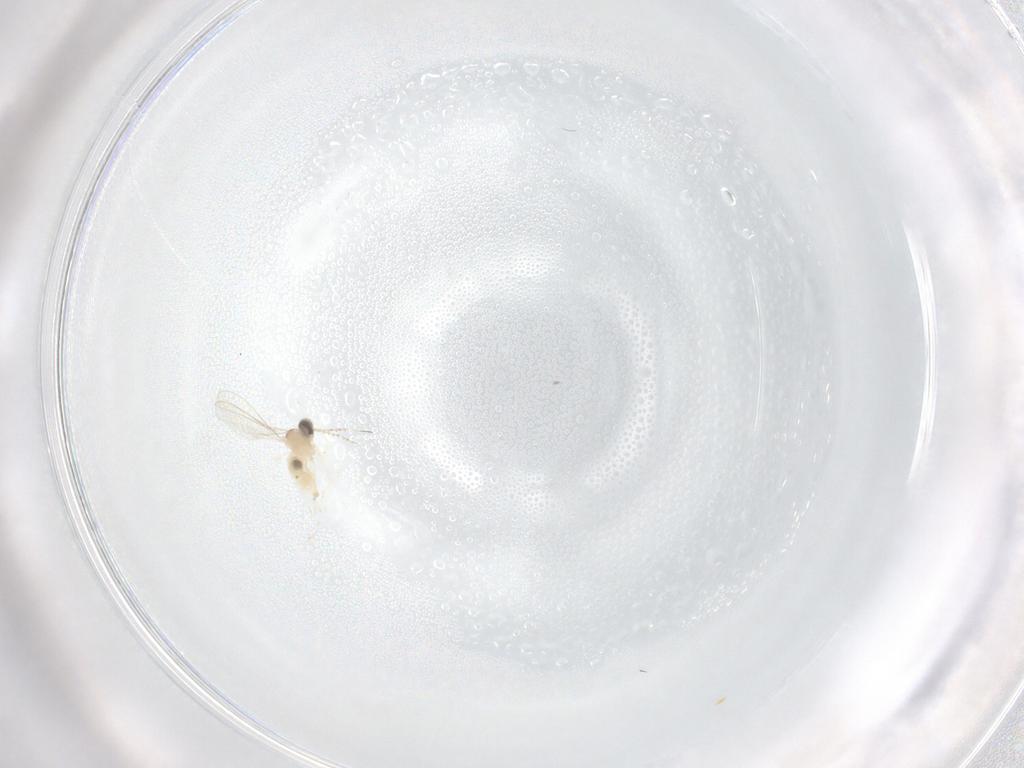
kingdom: Animalia
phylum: Arthropoda
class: Insecta
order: Diptera
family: Cecidomyiidae
